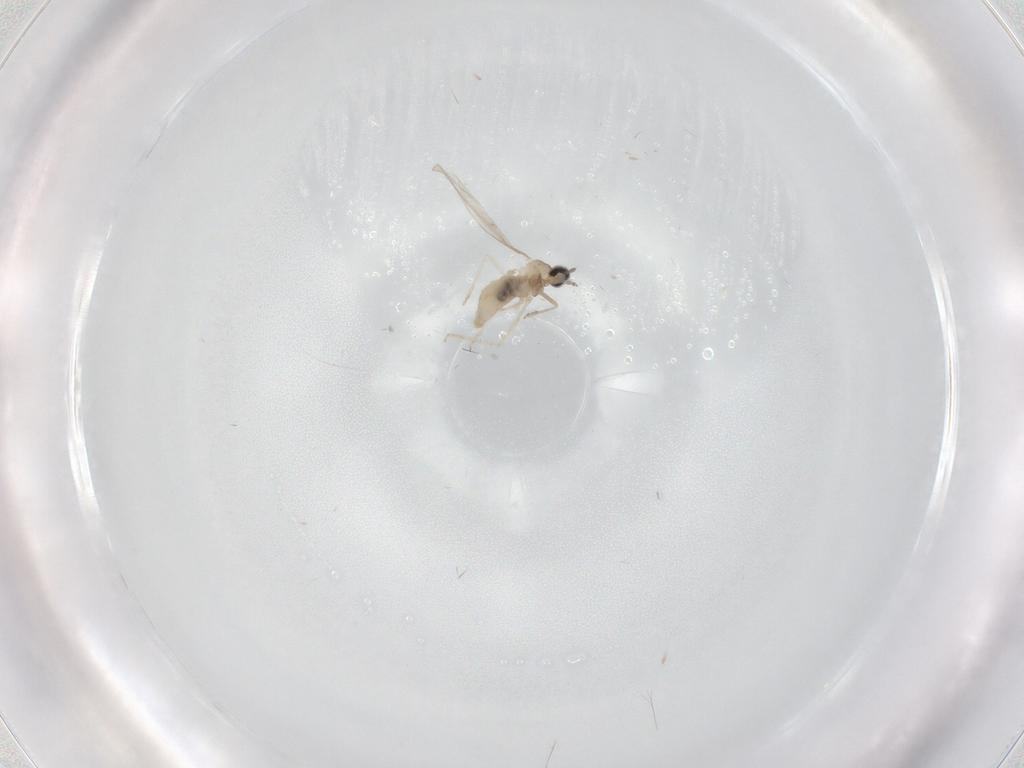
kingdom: Animalia
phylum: Arthropoda
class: Insecta
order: Diptera
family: Cecidomyiidae
